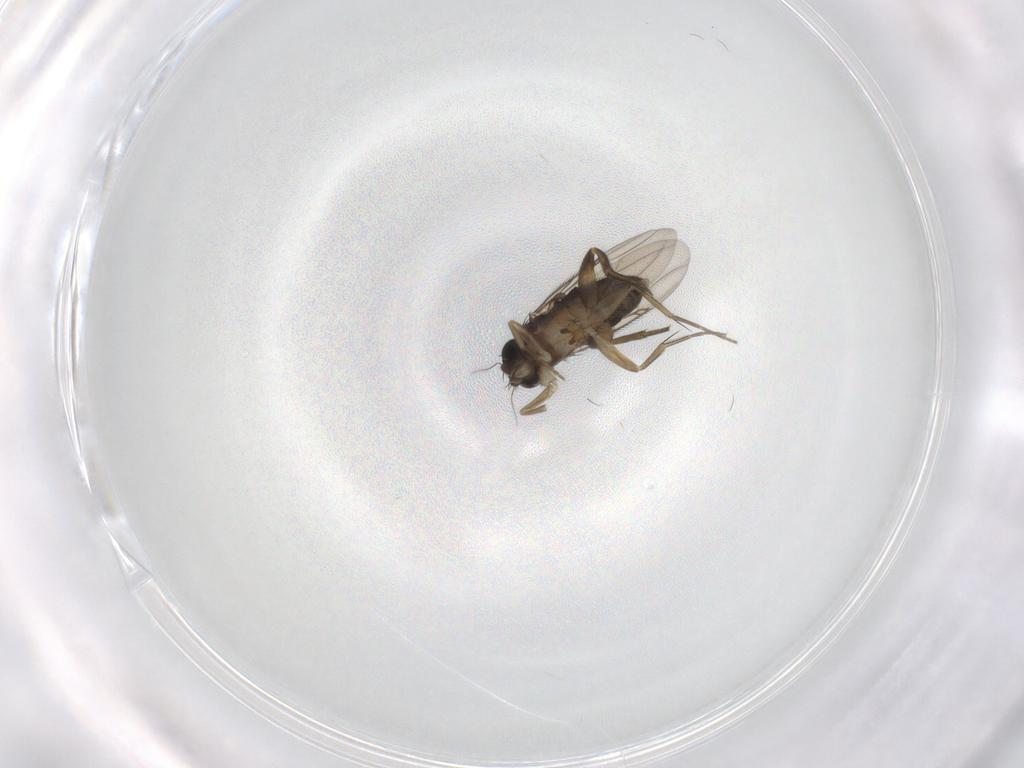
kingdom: Animalia
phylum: Arthropoda
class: Insecta
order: Diptera
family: Phoridae
